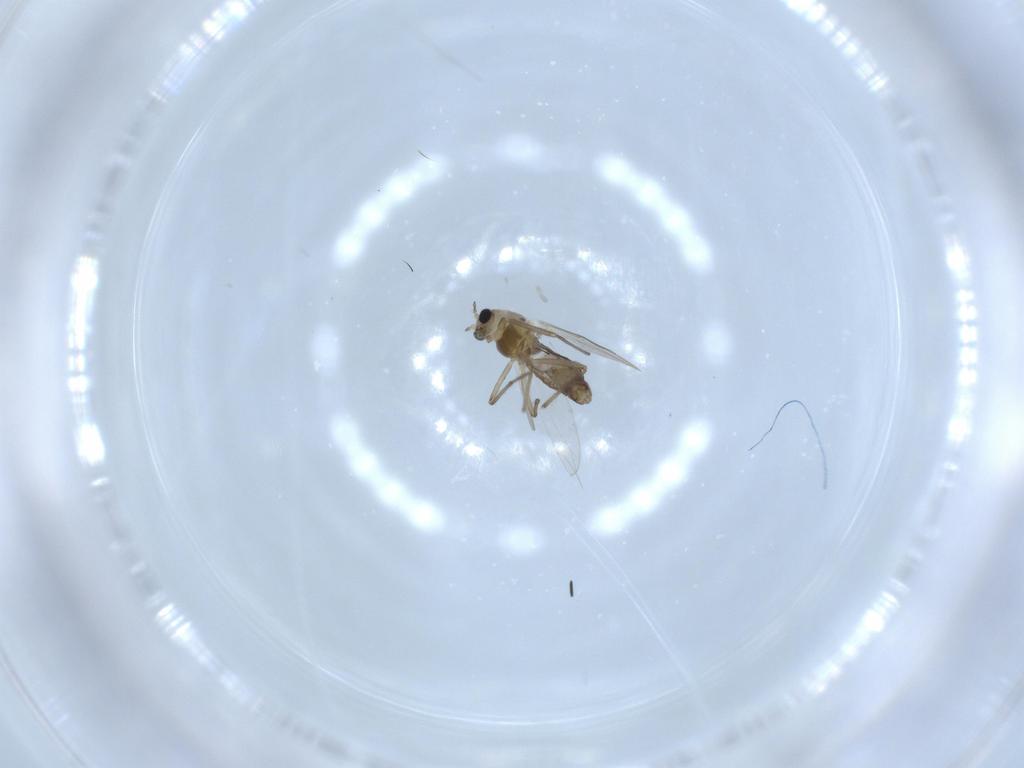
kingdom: Animalia
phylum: Arthropoda
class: Insecta
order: Diptera
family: Chironomidae
